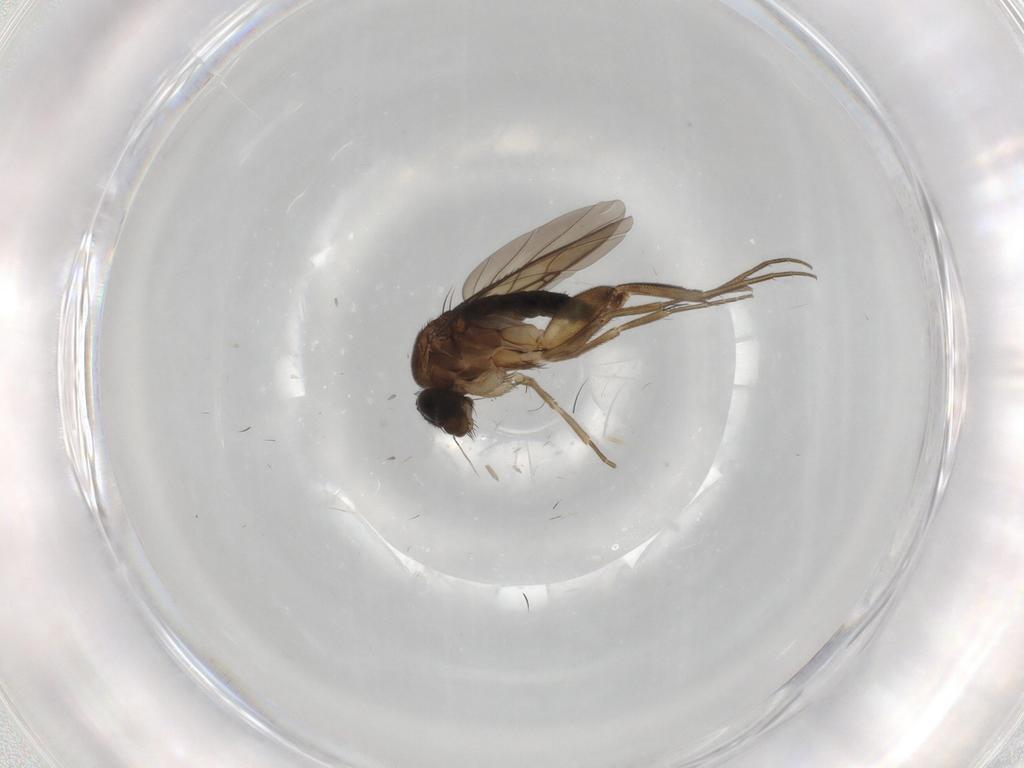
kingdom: Animalia
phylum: Arthropoda
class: Insecta
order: Diptera
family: Phoridae
